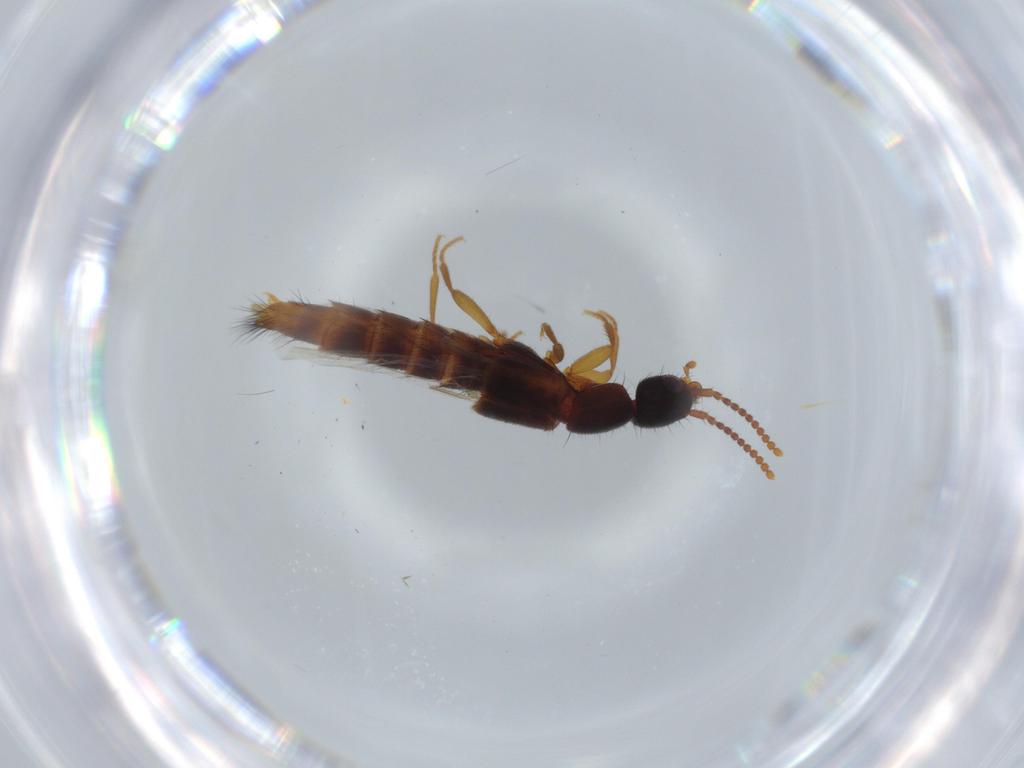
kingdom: Animalia
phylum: Arthropoda
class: Insecta
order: Coleoptera
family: Staphylinidae
